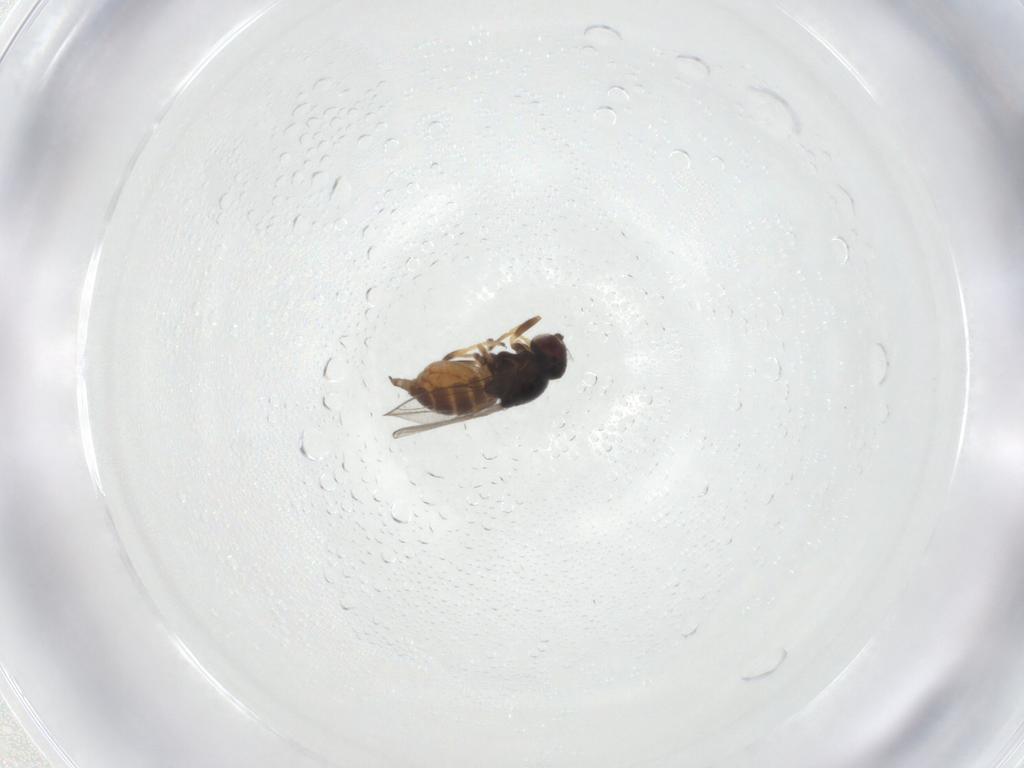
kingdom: Animalia
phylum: Arthropoda
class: Insecta
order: Diptera
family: Chloropidae
